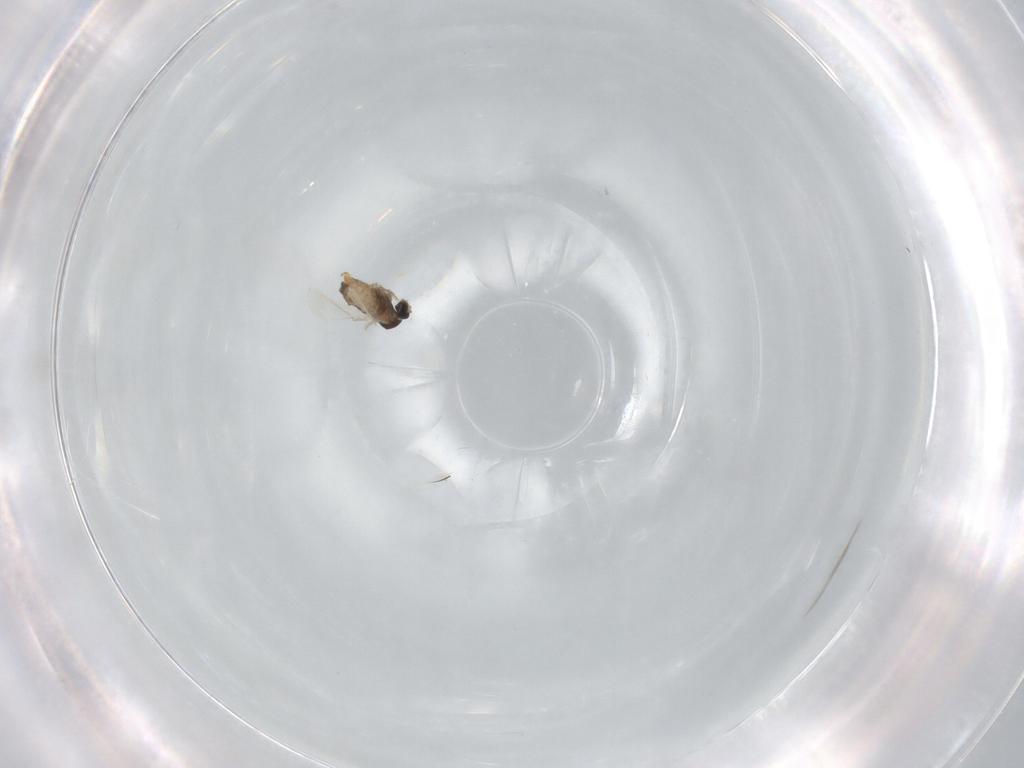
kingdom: Animalia
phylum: Arthropoda
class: Insecta
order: Diptera
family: Cecidomyiidae
